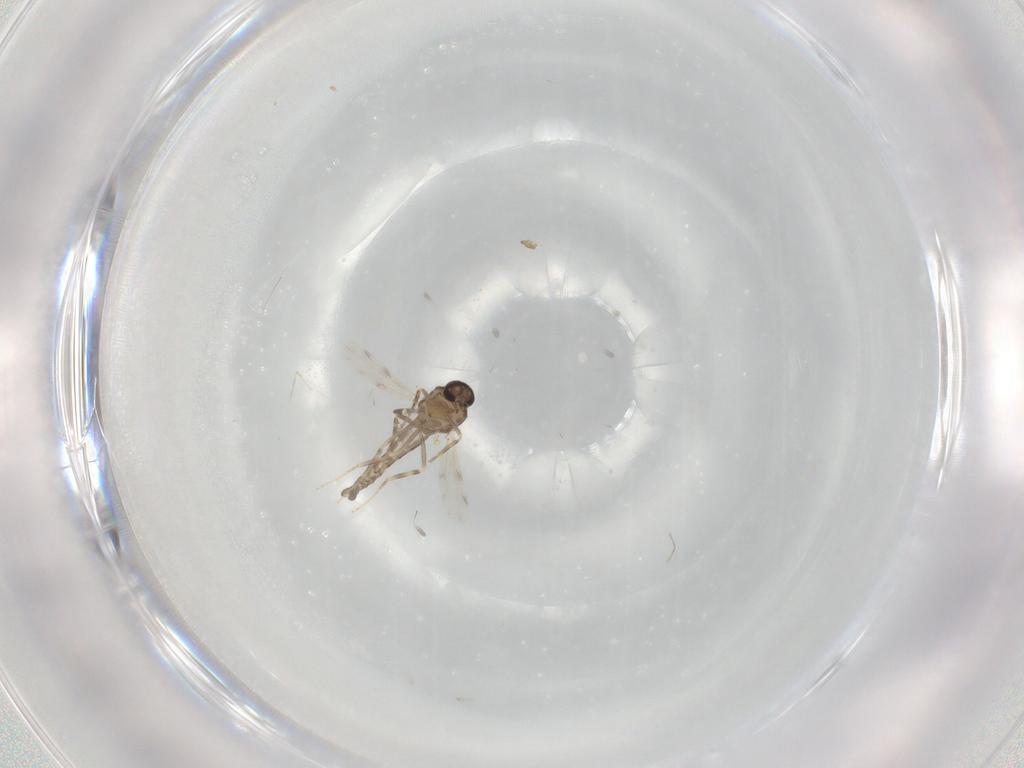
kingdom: Animalia
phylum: Arthropoda
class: Insecta
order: Diptera
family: Ceratopogonidae
